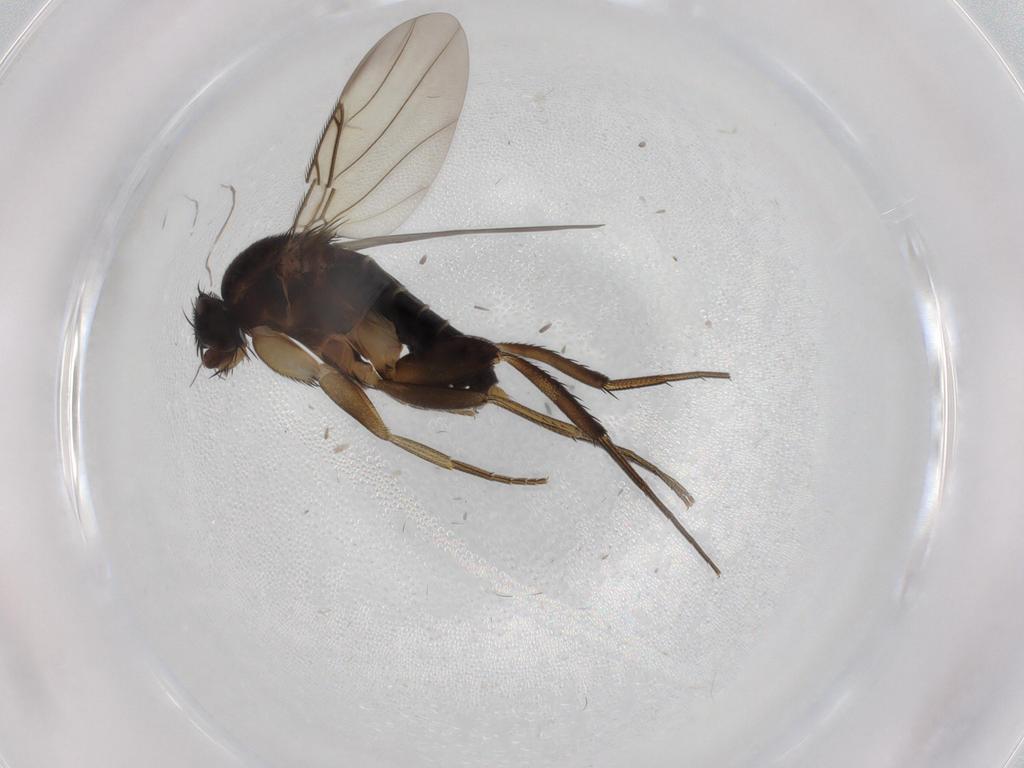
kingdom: Animalia
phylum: Arthropoda
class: Insecta
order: Diptera
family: Phoridae
